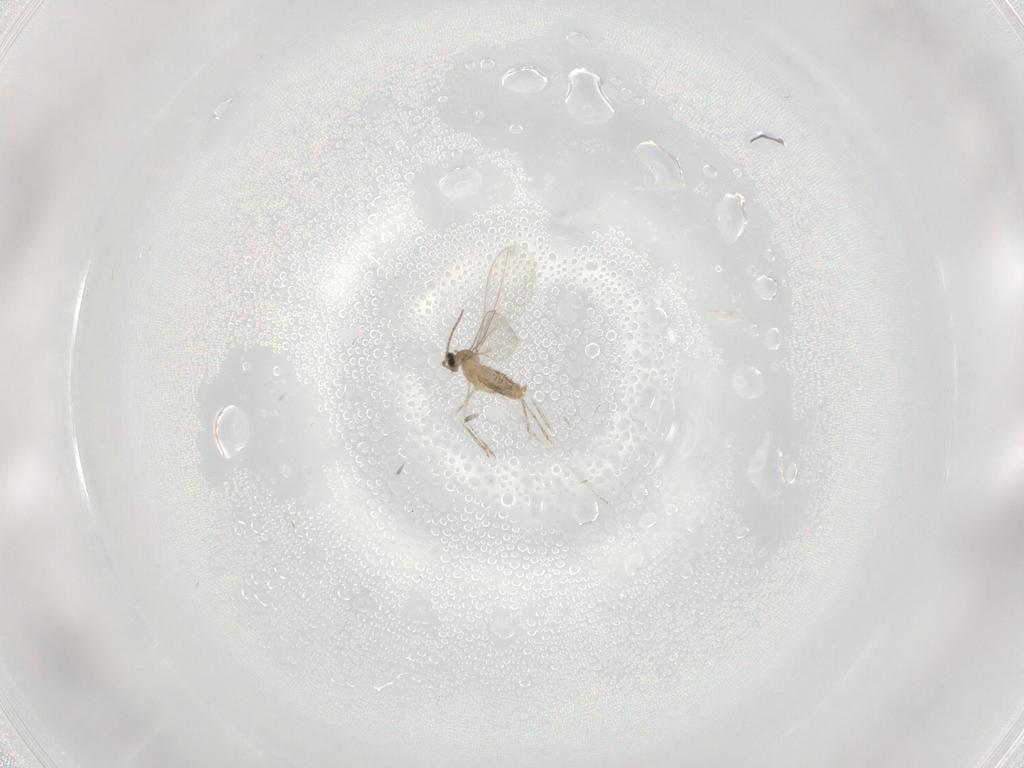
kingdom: Animalia
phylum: Arthropoda
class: Insecta
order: Diptera
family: Cecidomyiidae
